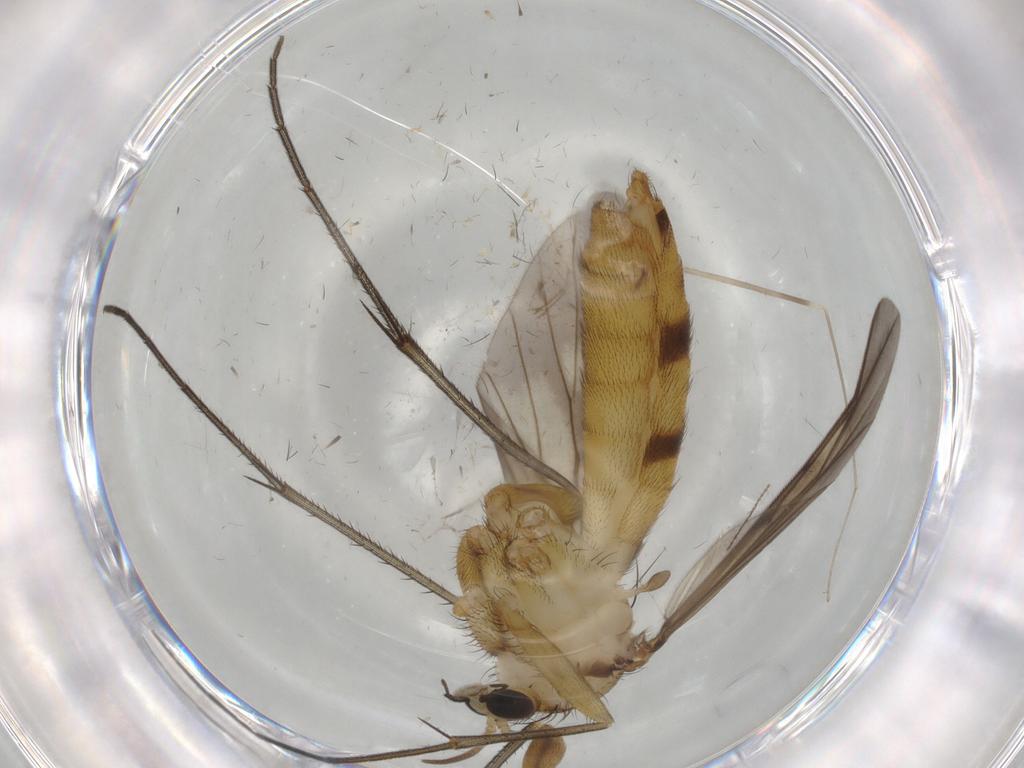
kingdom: Animalia
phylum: Arthropoda
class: Insecta
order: Diptera
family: Mycetophilidae
